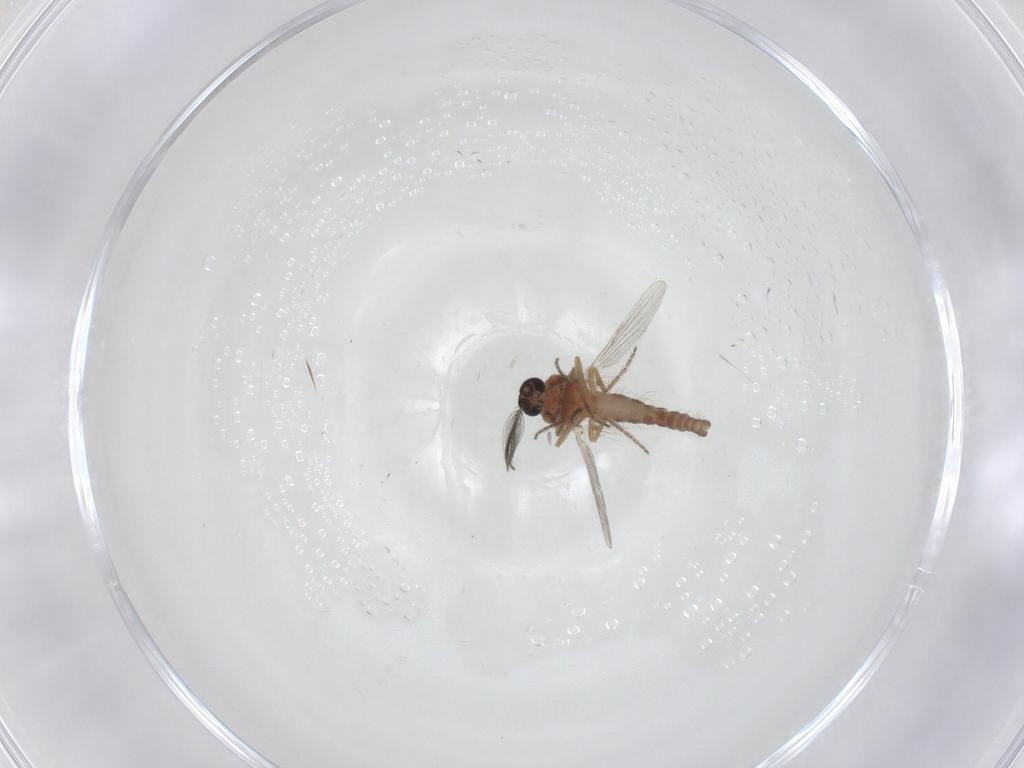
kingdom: Animalia
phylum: Arthropoda
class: Insecta
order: Diptera
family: Ceratopogonidae
